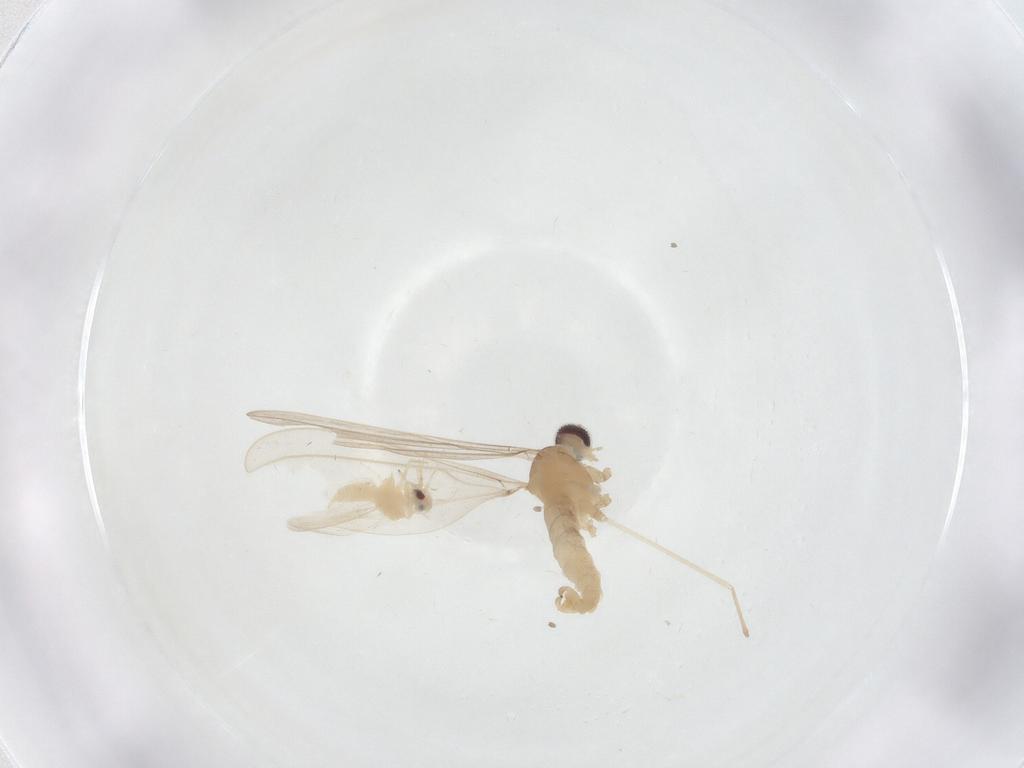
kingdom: Animalia
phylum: Arthropoda
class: Insecta
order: Hemiptera
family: Aleyrodidae
